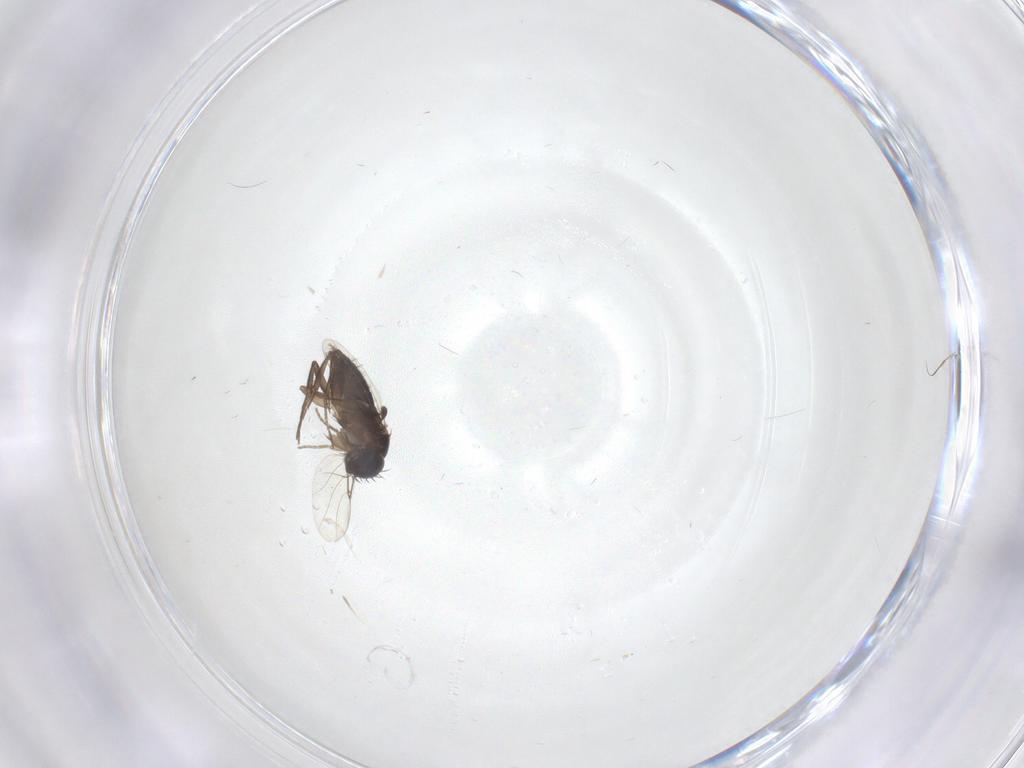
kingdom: Animalia
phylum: Arthropoda
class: Insecta
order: Diptera
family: Phoridae
